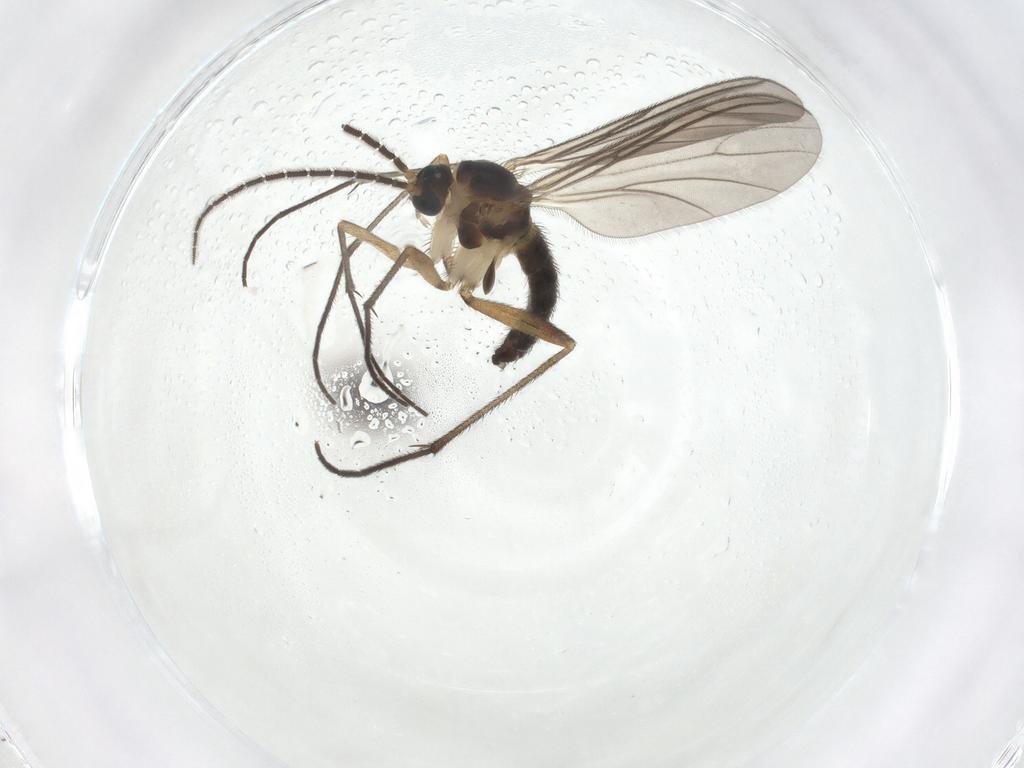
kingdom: Animalia
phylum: Arthropoda
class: Insecta
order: Diptera
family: Sciaridae
